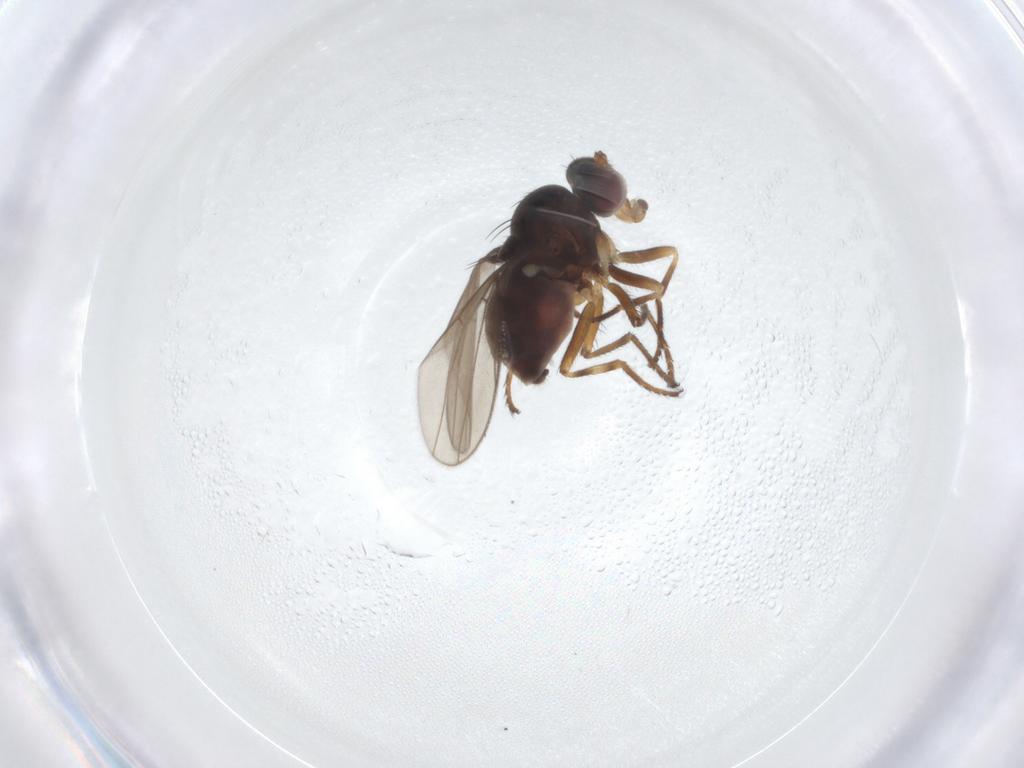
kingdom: Animalia
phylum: Arthropoda
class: Insecta
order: Diptera
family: Ephydridae
